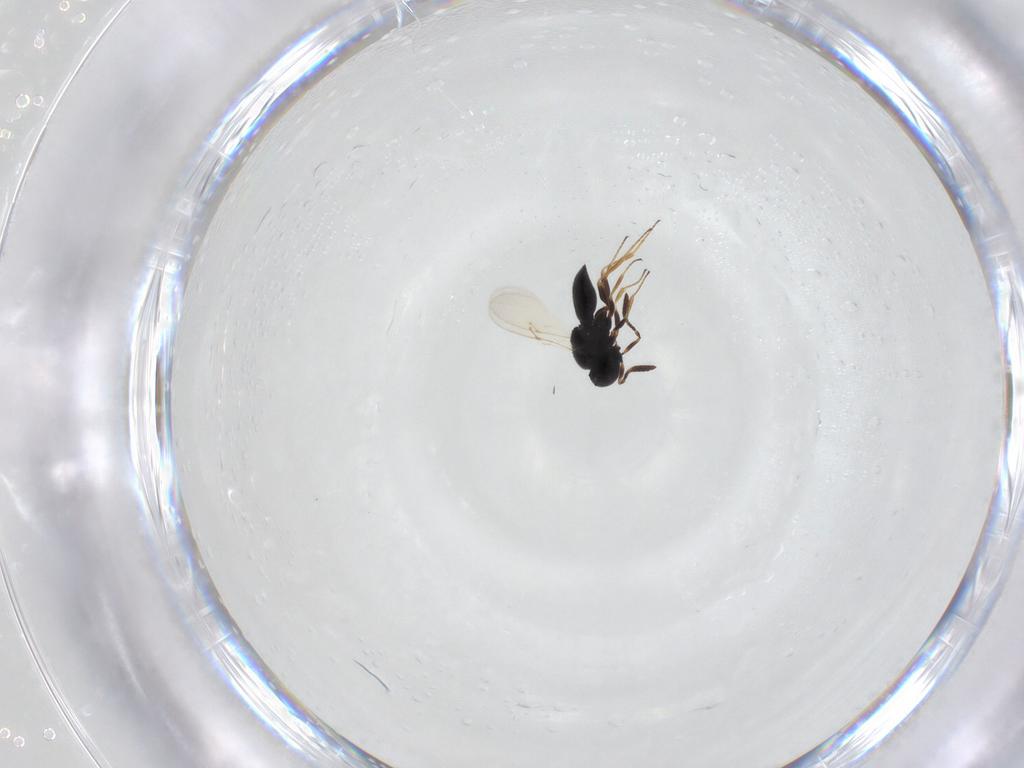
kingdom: Animalia
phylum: Arthropoda
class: Insecta
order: Hymenoptera
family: Scelionidae
